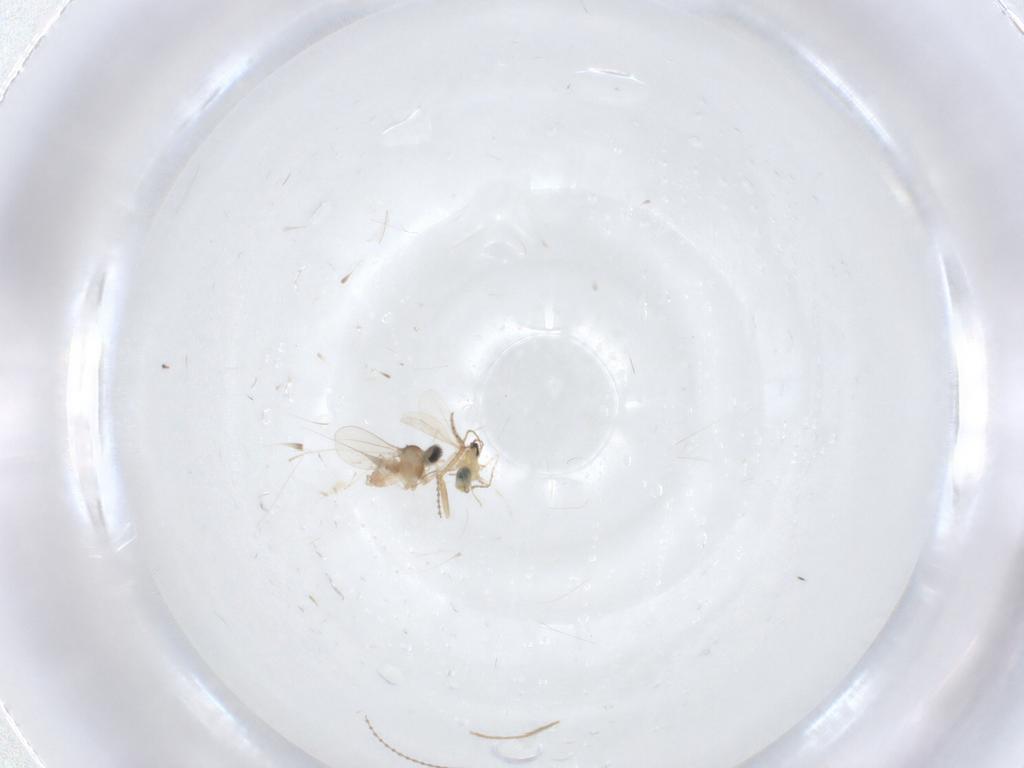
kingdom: Animalia
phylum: Arthropoda
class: Insecta
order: Diptera
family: Cecidomyiidae
